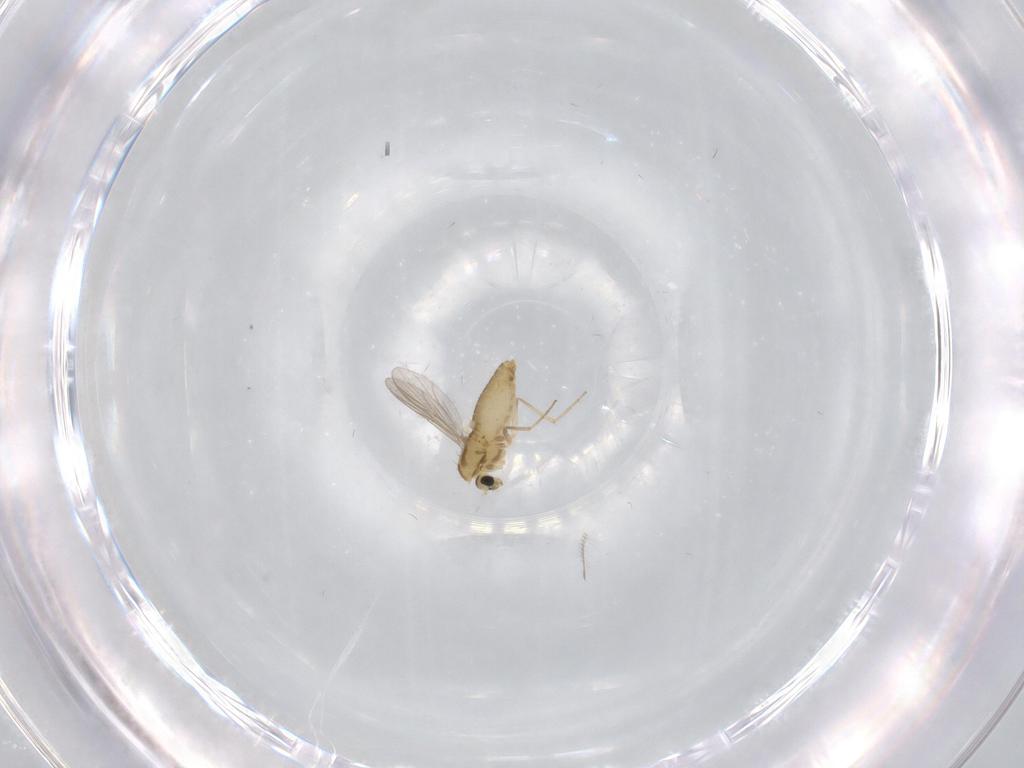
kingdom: Animalia
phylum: Arthropoda
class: Insecta
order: Diptera
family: Chironomidae
